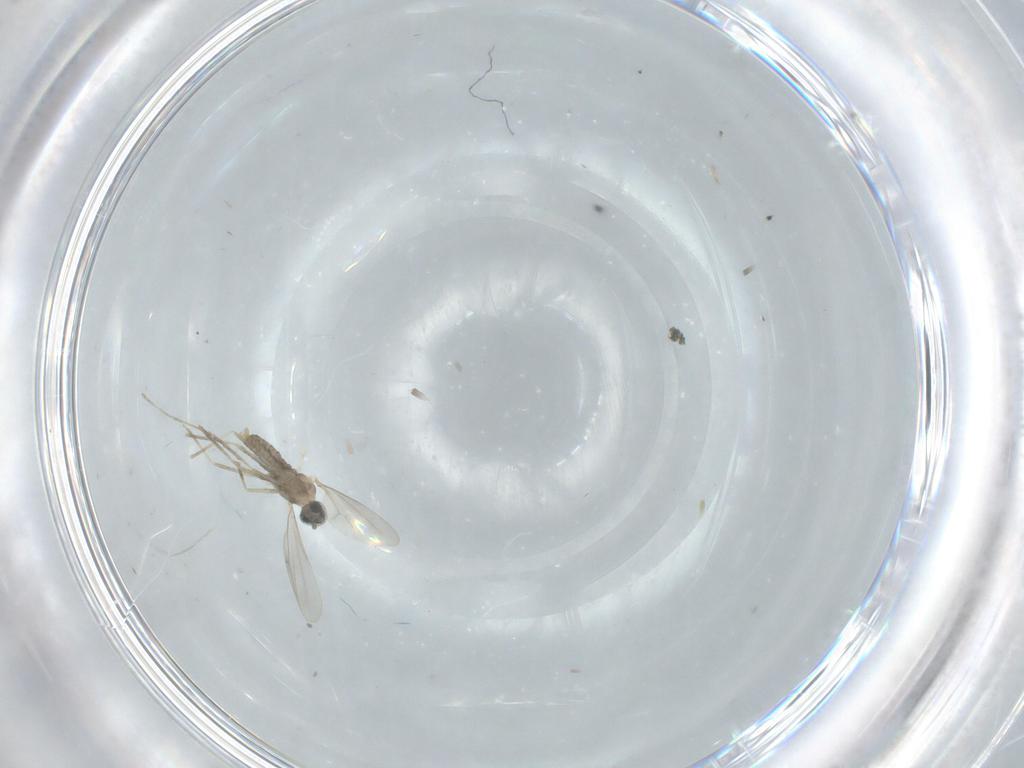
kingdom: Animalia
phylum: Arthropoda
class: Insecta
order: Diptera
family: Cecidomyiidae
